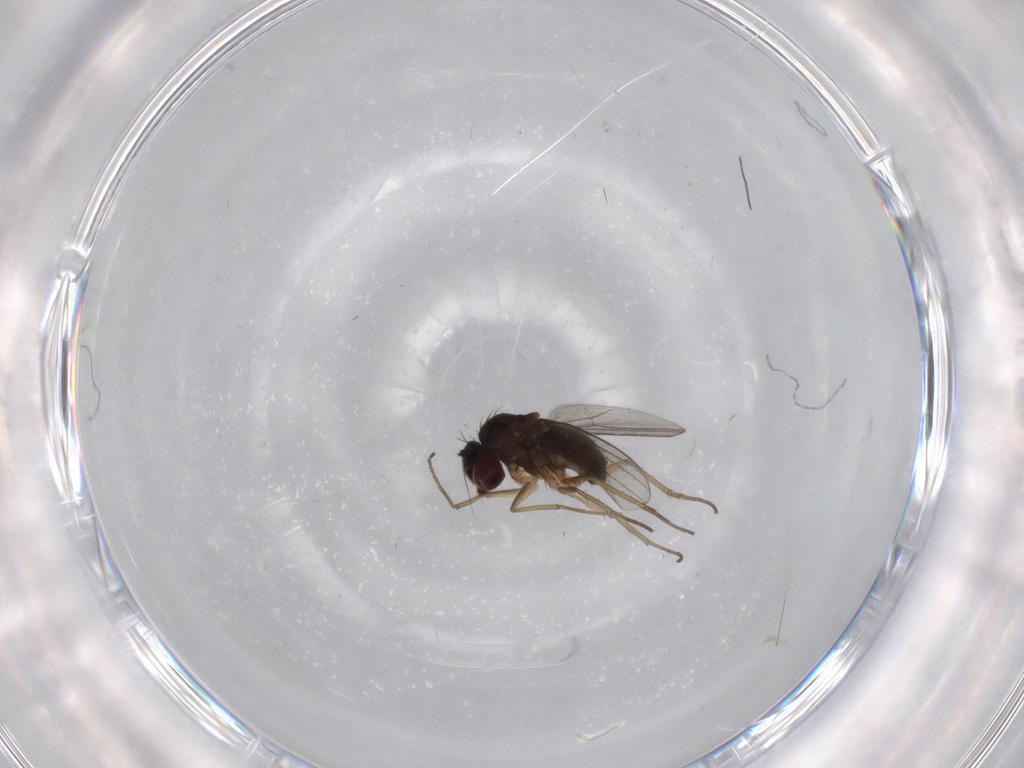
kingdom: Animalia
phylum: Arthropoda
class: Insecta
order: Diptera
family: Dolichopodidae
